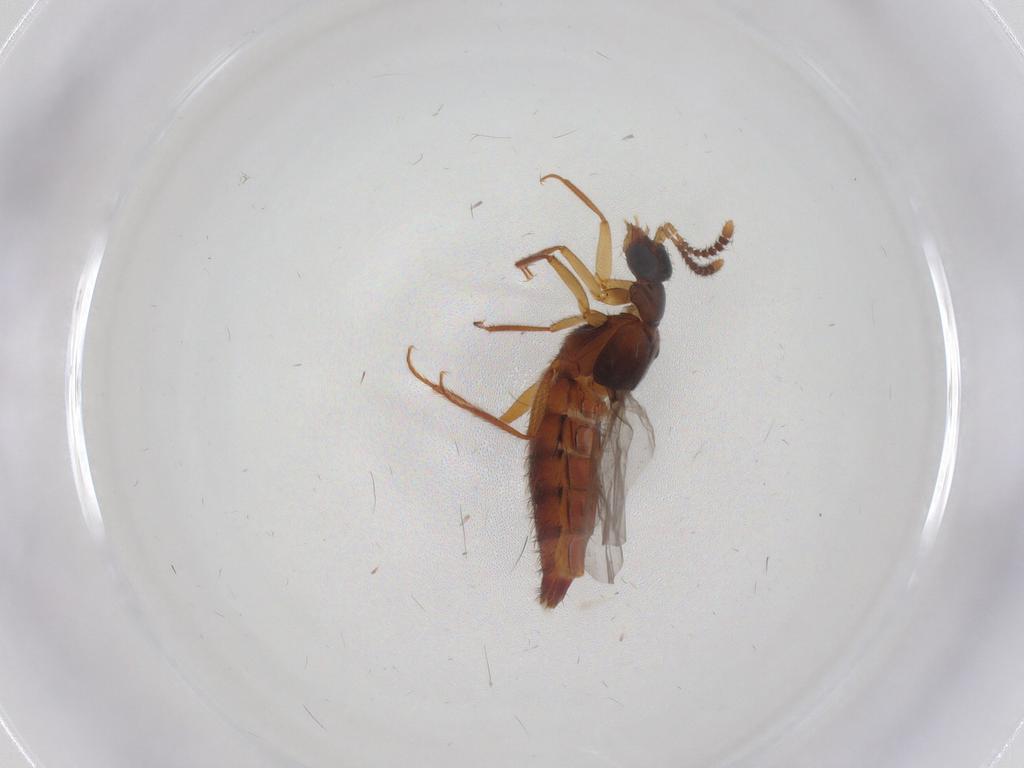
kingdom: Animalia
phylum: Arthropoda
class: Insecta
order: Coleoptera
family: Staphylinidae
